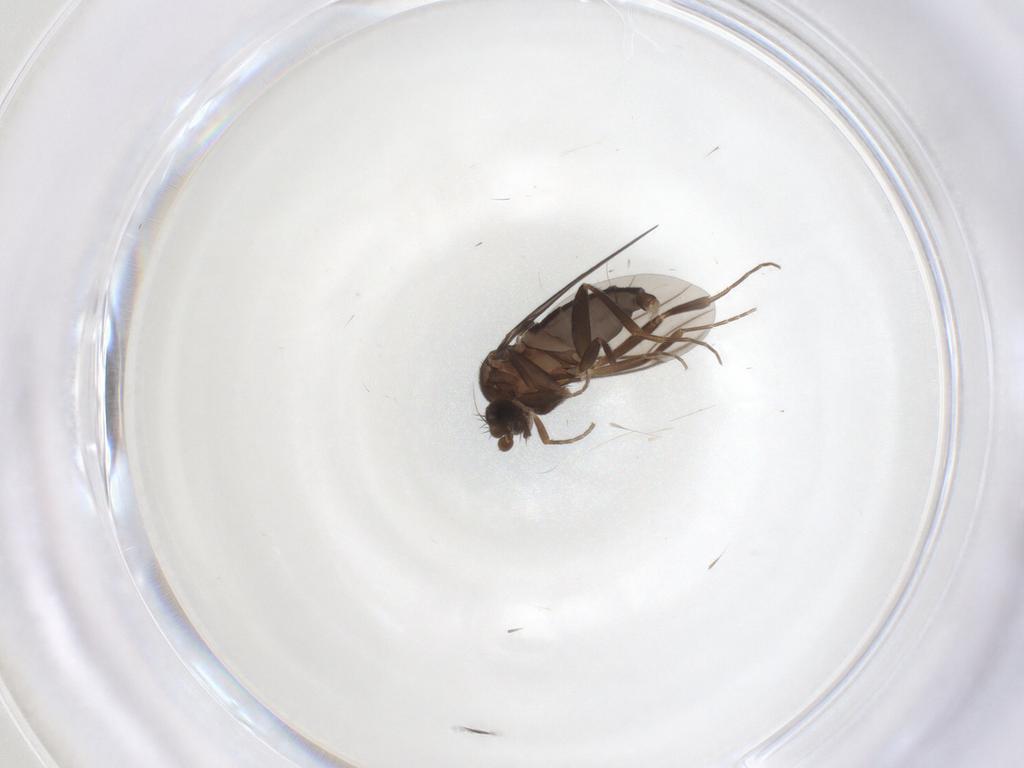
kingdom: Animalia
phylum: Arthropoda
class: Insecta
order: Diptera
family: Phoridae
